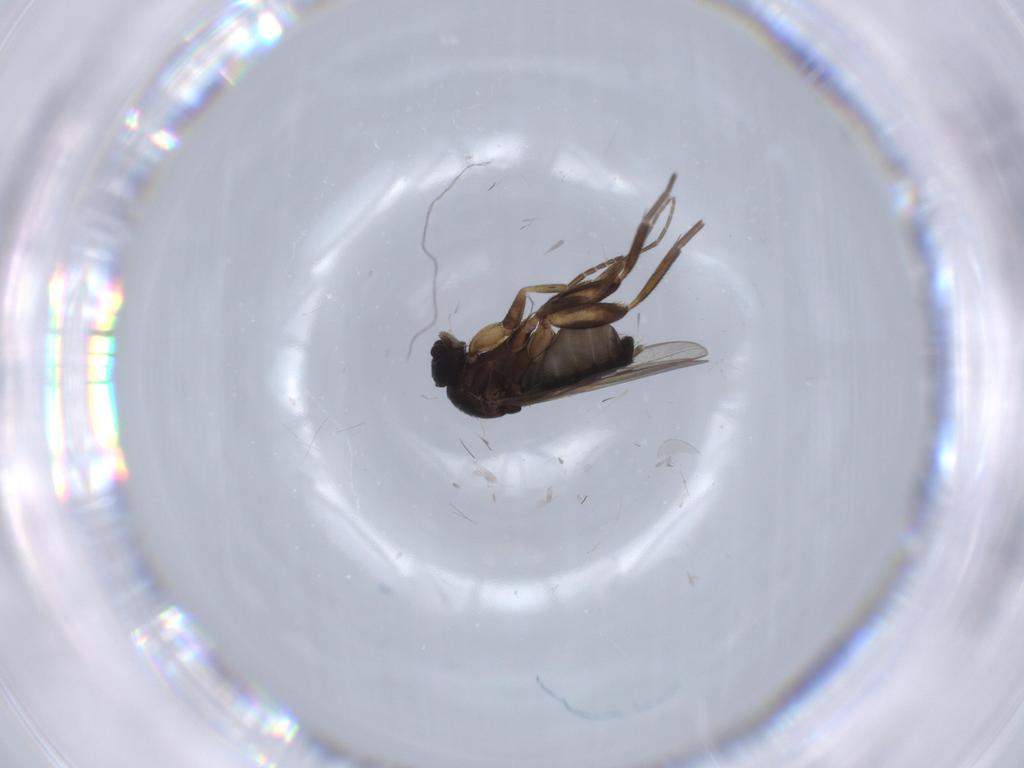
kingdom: Animalia
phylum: Arthropoda
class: Insecta
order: Diptera
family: Phoridae
